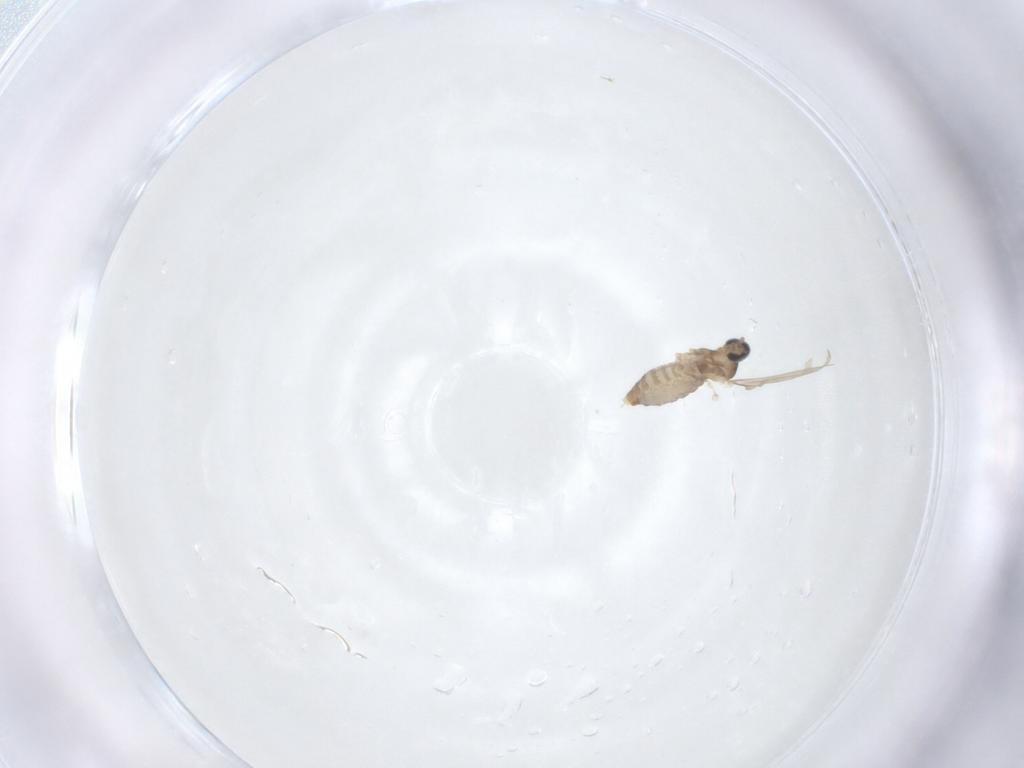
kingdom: Animalia
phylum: Arthropoda
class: Insecta
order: Diptera
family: Cecidomyiidae
